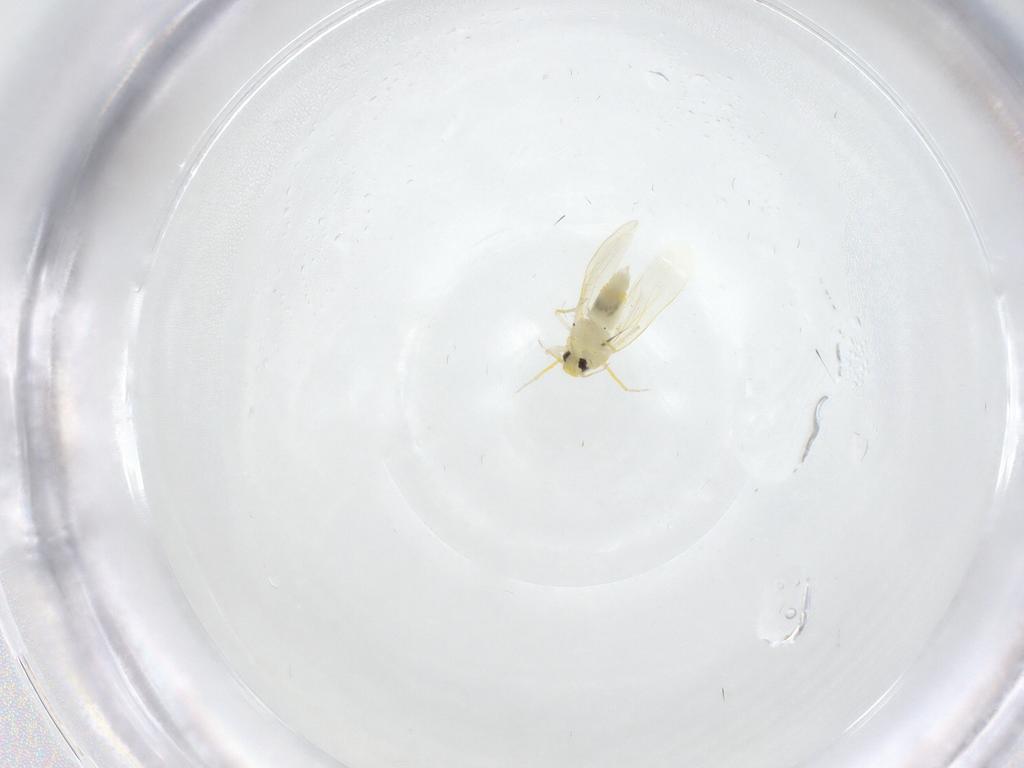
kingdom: Animalia
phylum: Arthropoda
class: Insecta
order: Hemiptera
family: Aleyrodidae
